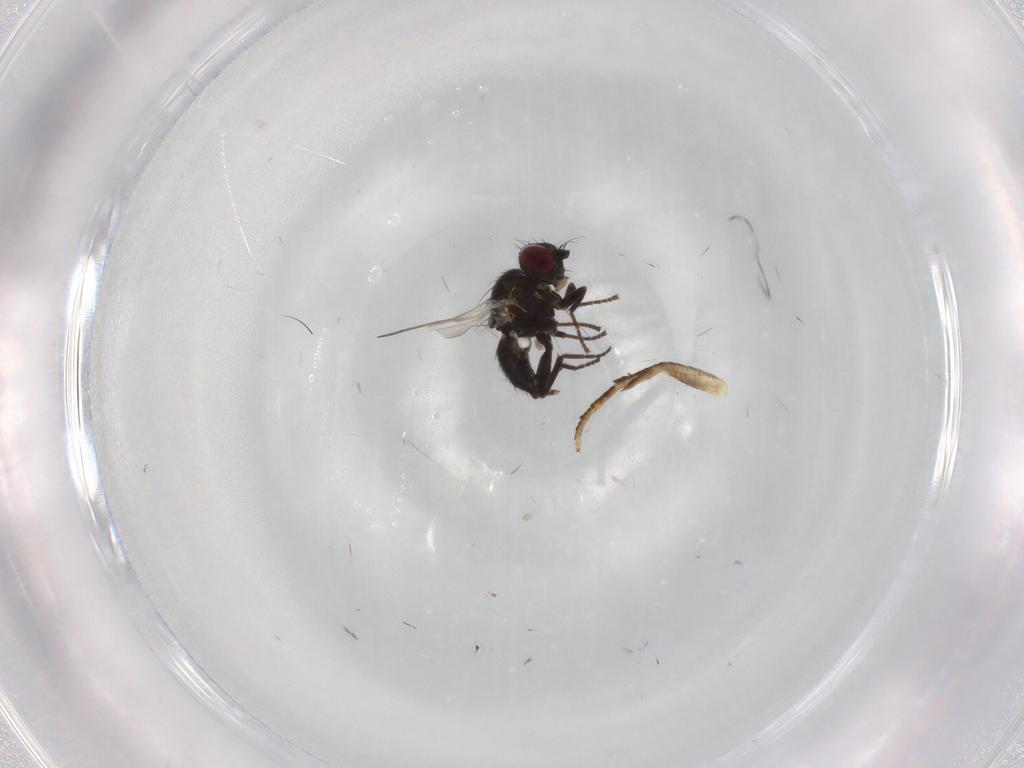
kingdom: Animalia
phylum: Arthropoda
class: Insecta
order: Diptera
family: Agromyzidae
